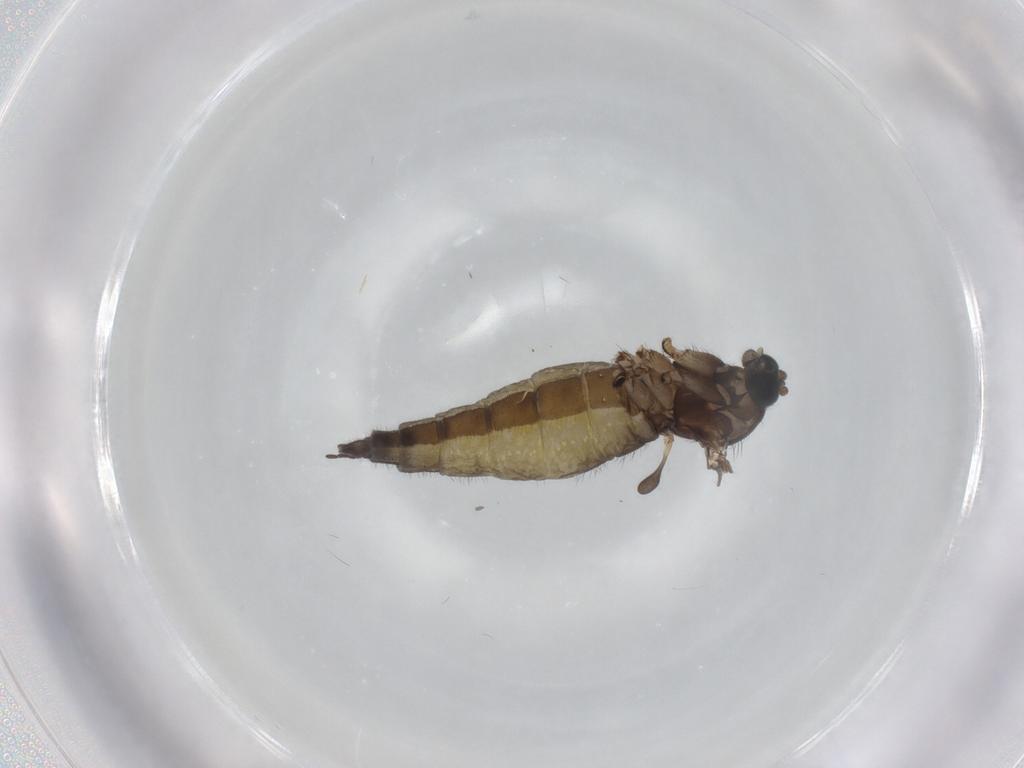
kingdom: Animalia
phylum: Arthropoda
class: Insecta
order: Diptera
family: Sciaridae
